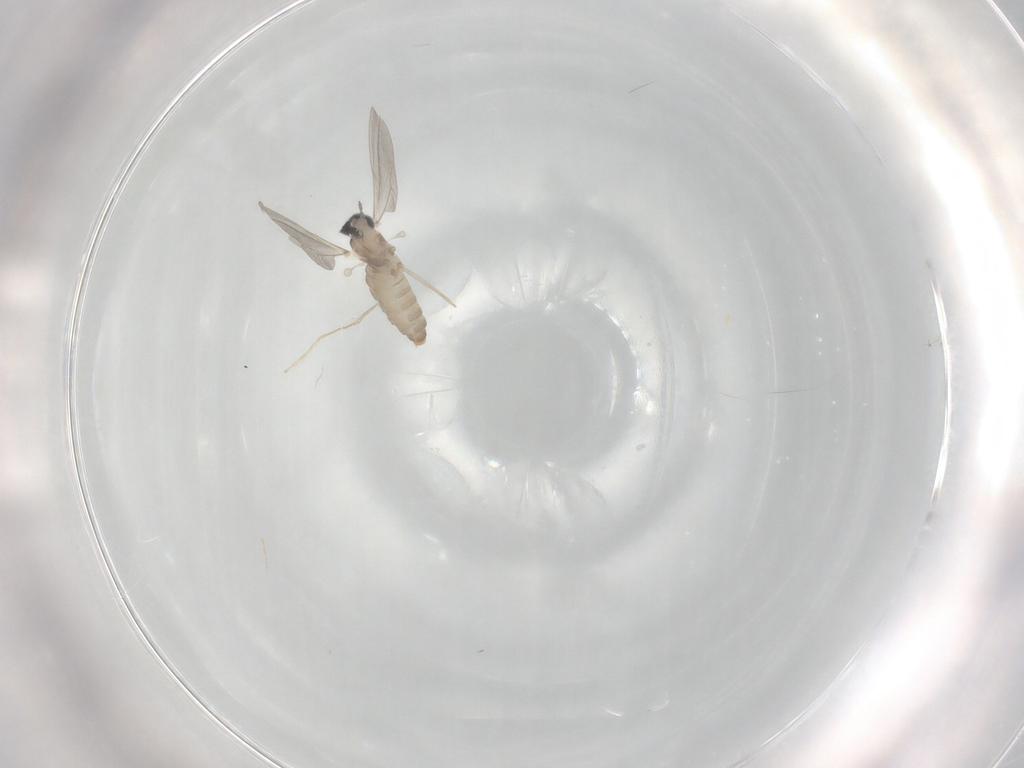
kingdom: Animalia
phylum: Arthropoda
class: Insecta
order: Diptera
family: Cecidomyiidae
